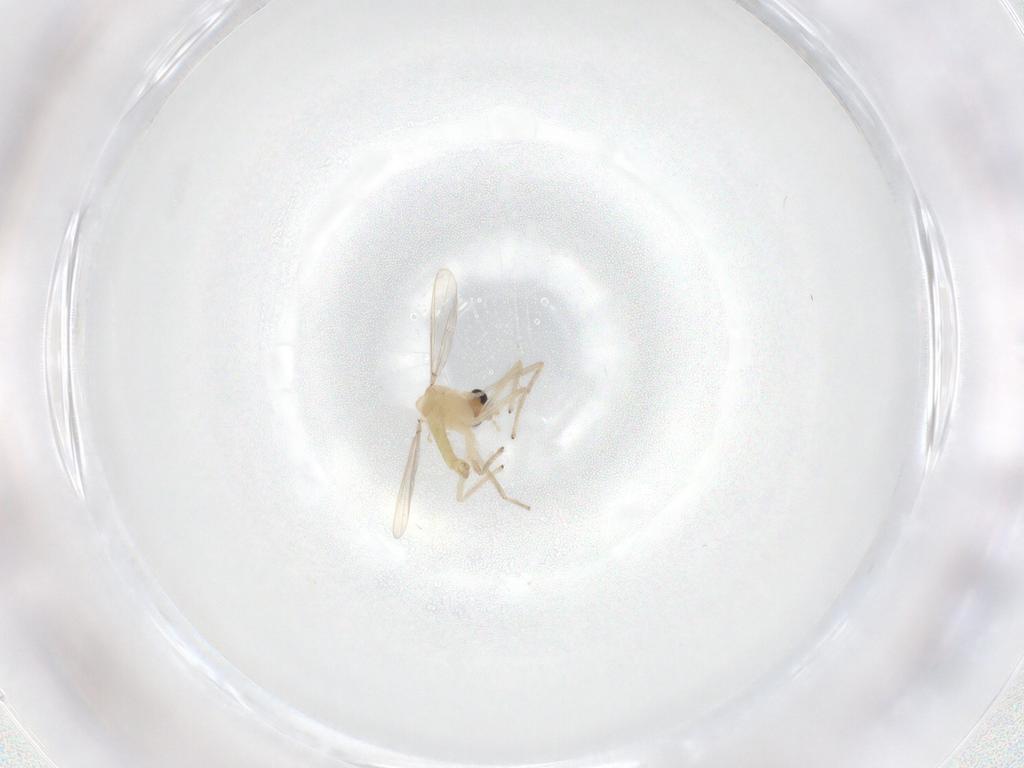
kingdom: Animalia
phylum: Arthropoda
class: Insecta
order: Diptera
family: Chironomidae
